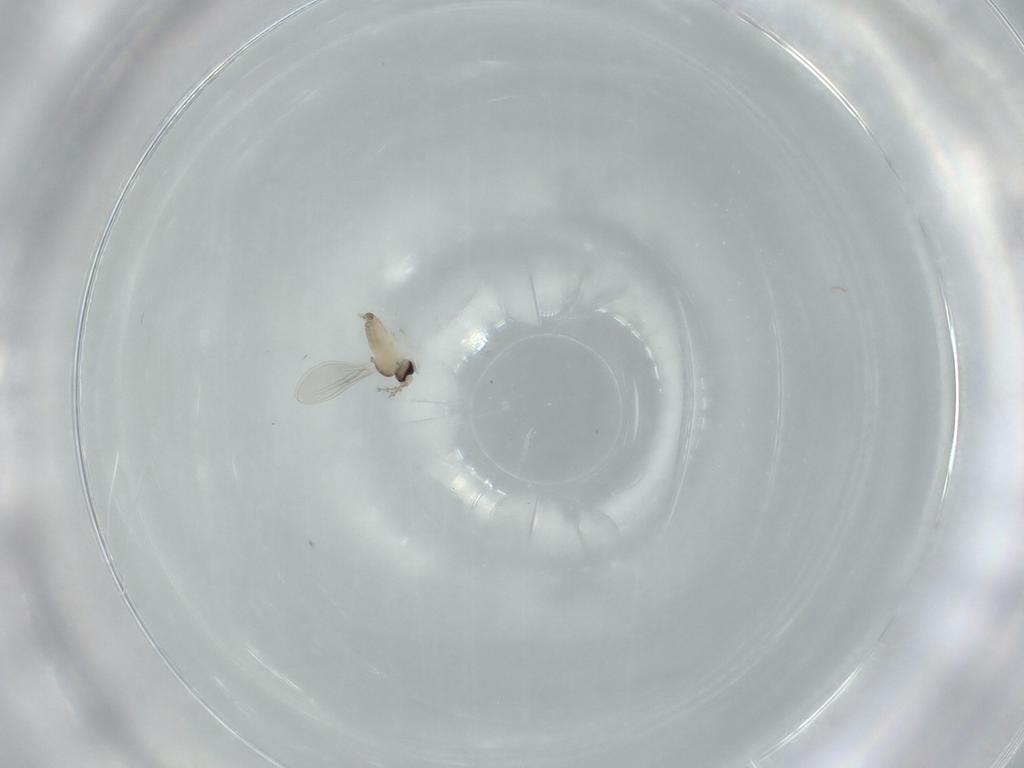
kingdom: Animalia
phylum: Arthropoda
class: Insecta
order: Diptera
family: Cecidomyiidae
